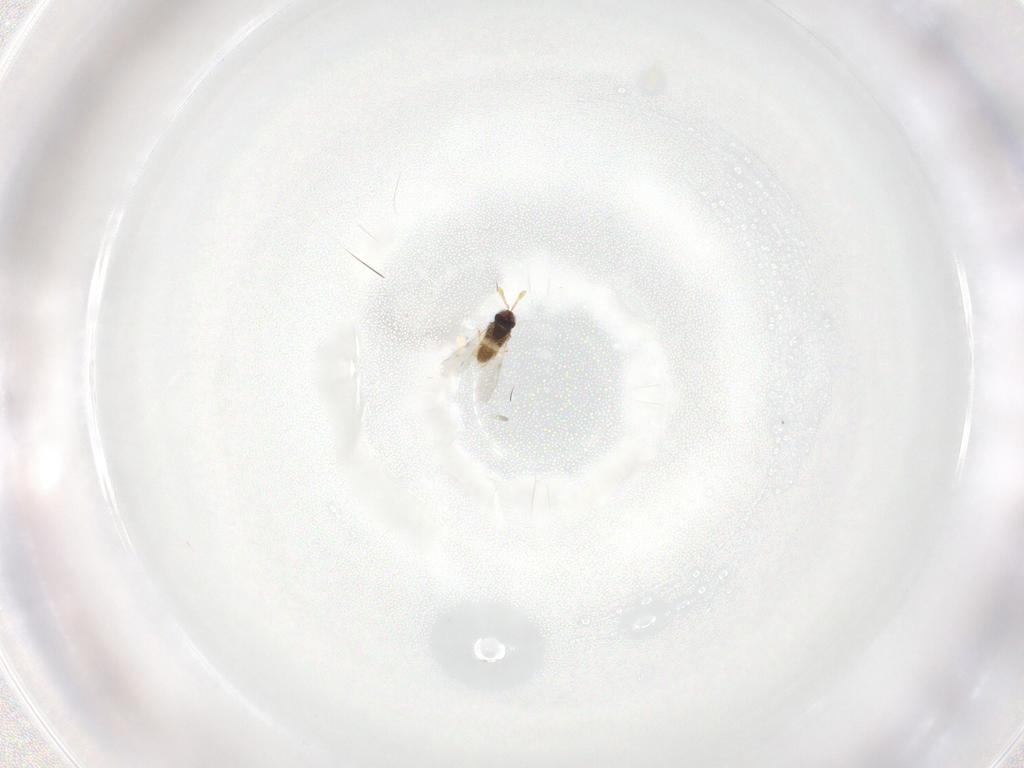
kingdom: Animalia
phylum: Arthropoda
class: Insecta
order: Hymenoptera
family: Encyrtidae
